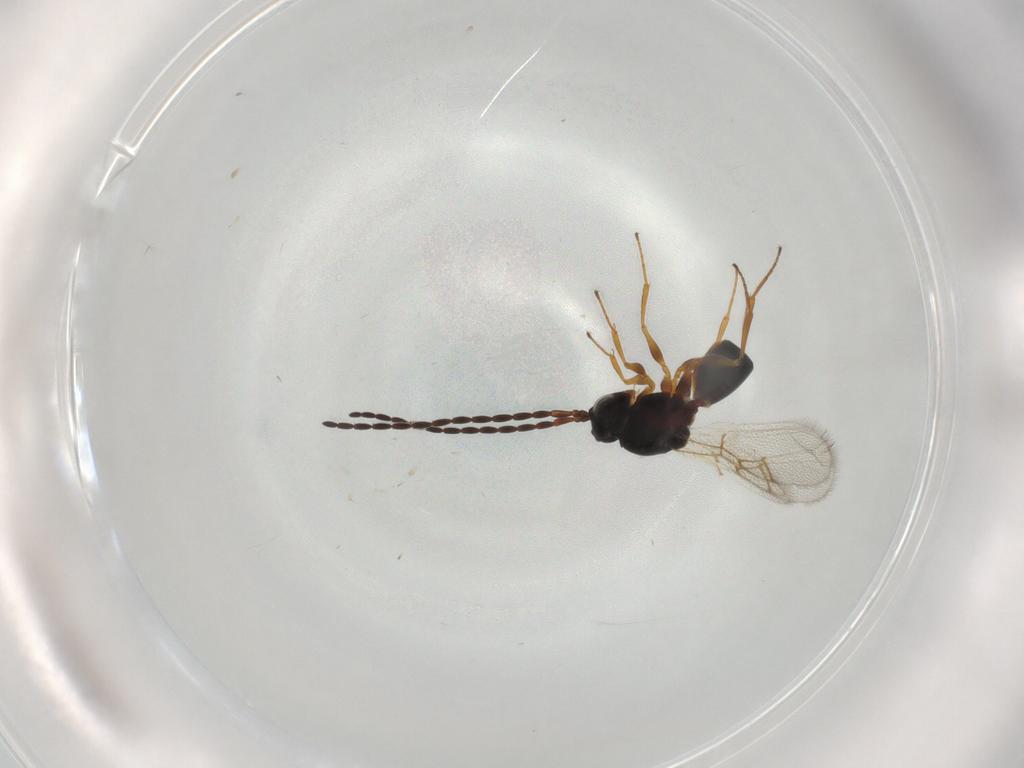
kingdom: Animalia
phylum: Arthropoda
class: Insecta
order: Hymenoptera
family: Figitidae
